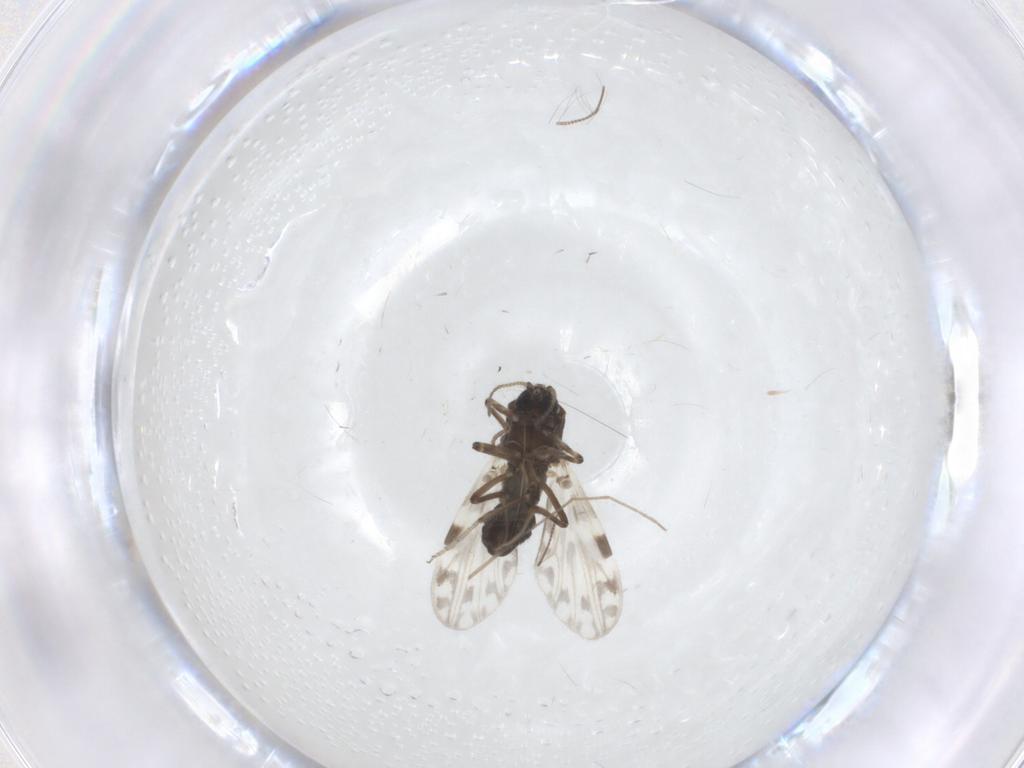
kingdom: Animalia
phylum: Arthropoda
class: Insecta
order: Diptera
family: Ceratopogonidae
